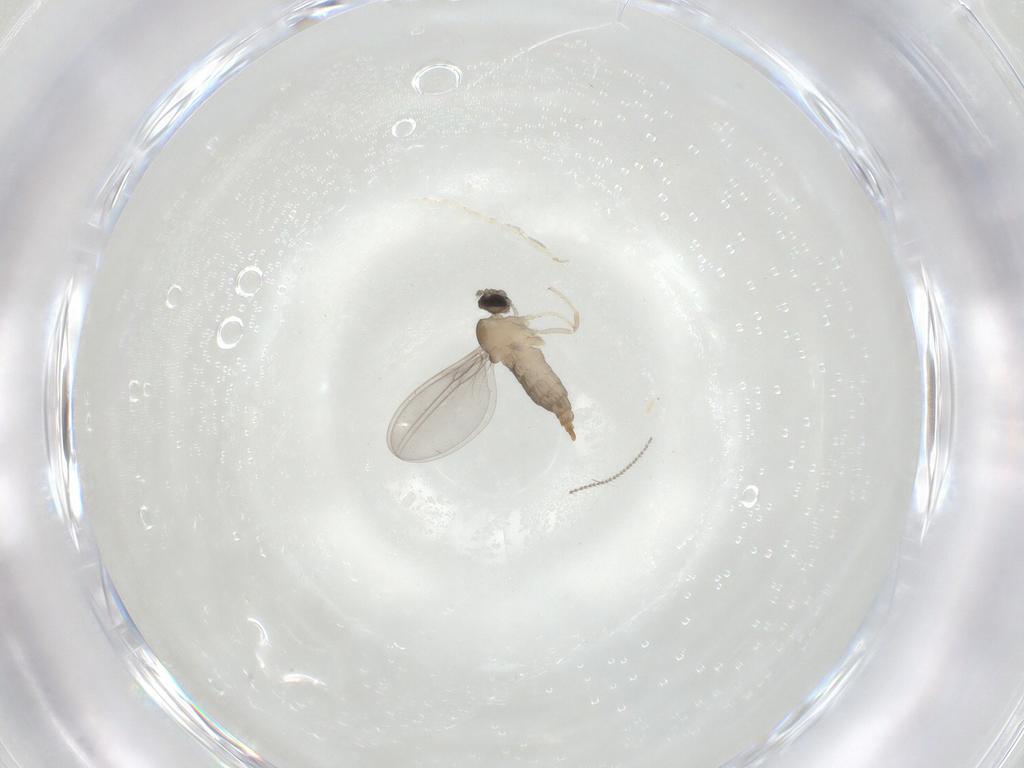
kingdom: Animalia
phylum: Arthropoda
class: Insecta
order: Diptera
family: Cecidomyiidae
